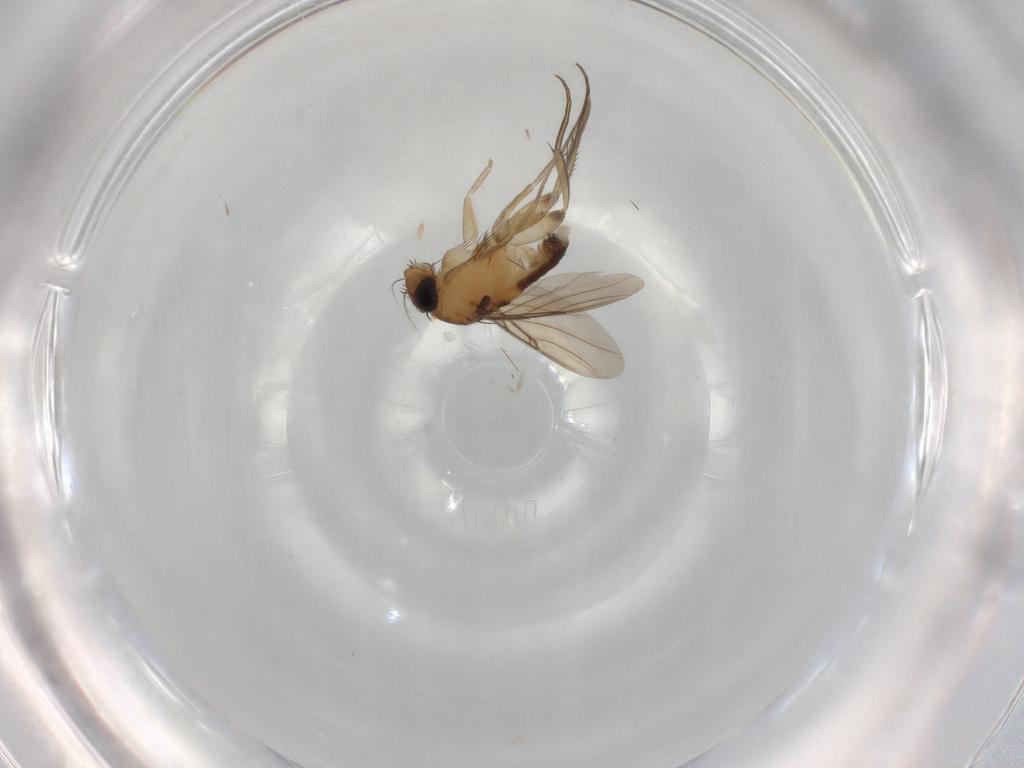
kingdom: Animalia
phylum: Arthropoda
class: Insecta
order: Diptera
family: Phoridae
